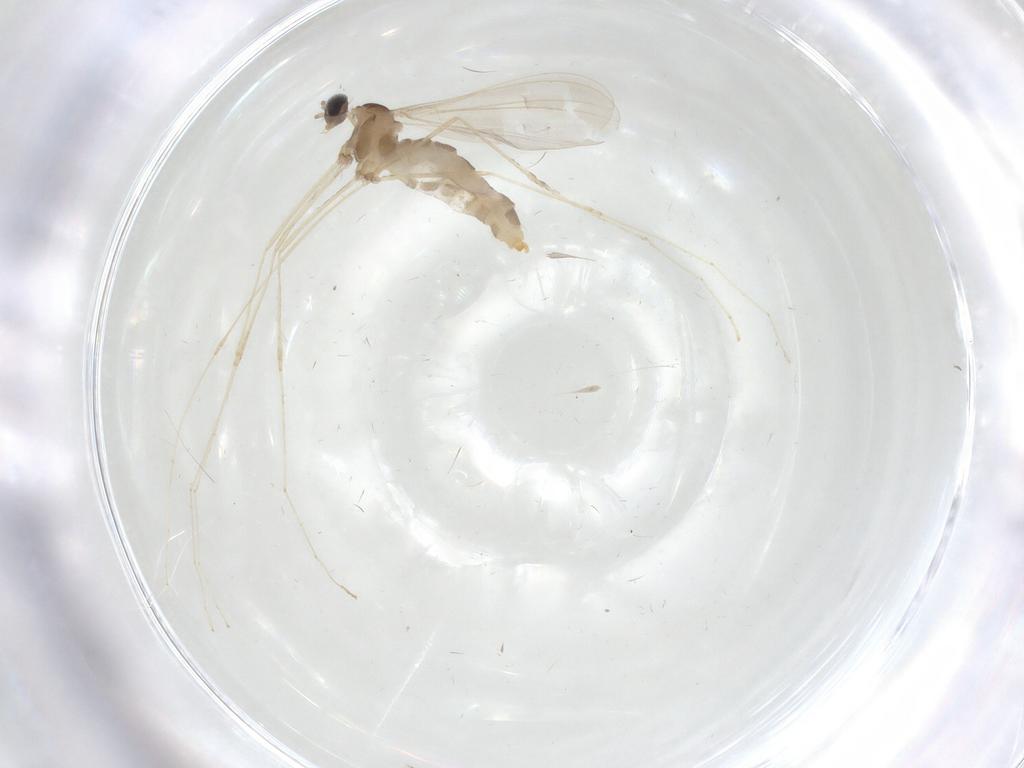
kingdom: Animalia
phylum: Arthropoda
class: Insecta
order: Diptera
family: Cecidomyiidae
